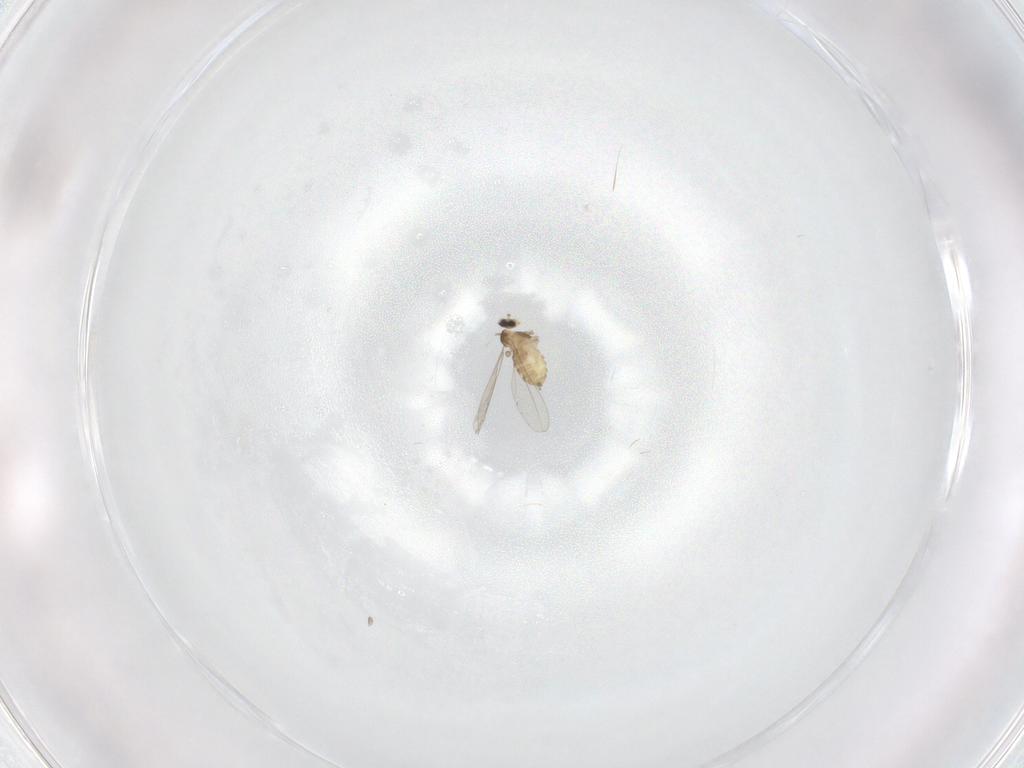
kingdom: Animalia
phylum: Arthropoda
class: Insecta
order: Diptera
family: Cecidomyiidae
